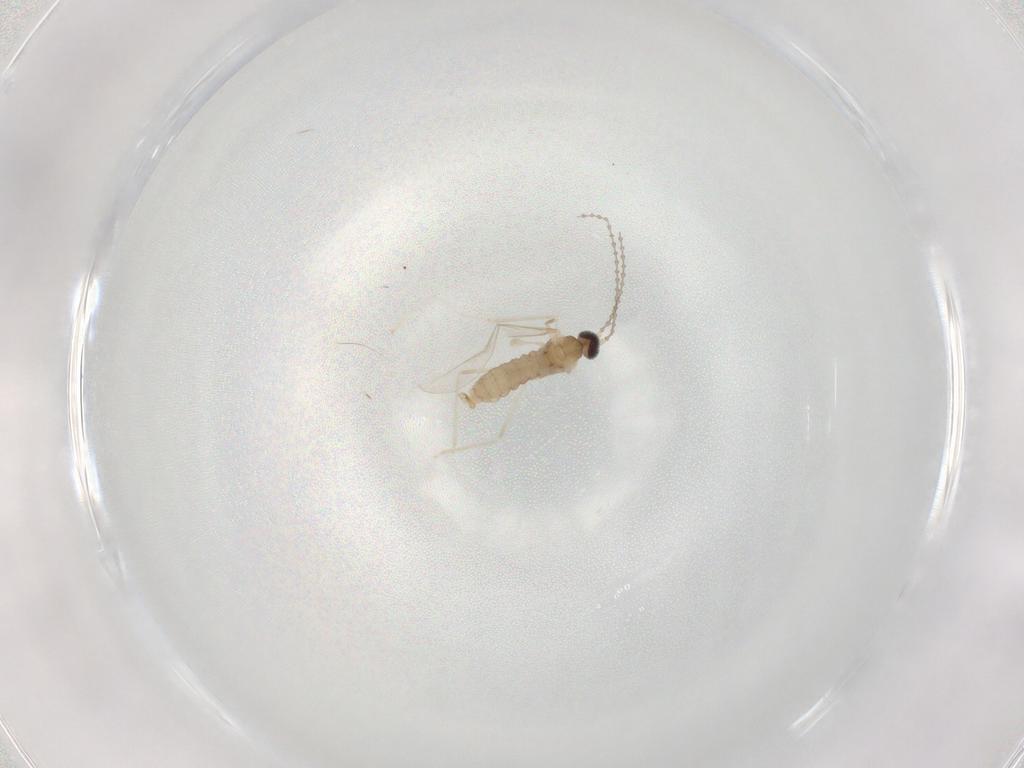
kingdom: Animalia
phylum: Arthropoda
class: Insecta
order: Diptera
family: Cecidomyiidae
